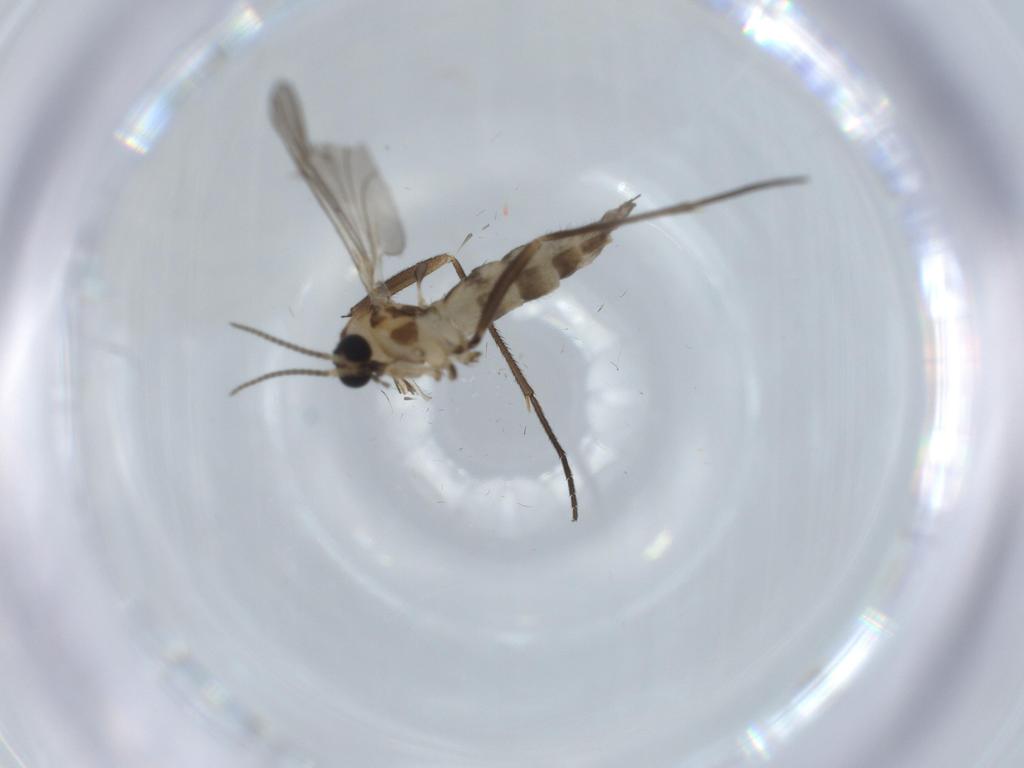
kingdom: Animalia
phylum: Arthropoda
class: Insecta
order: Diptera
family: Sciaridae
